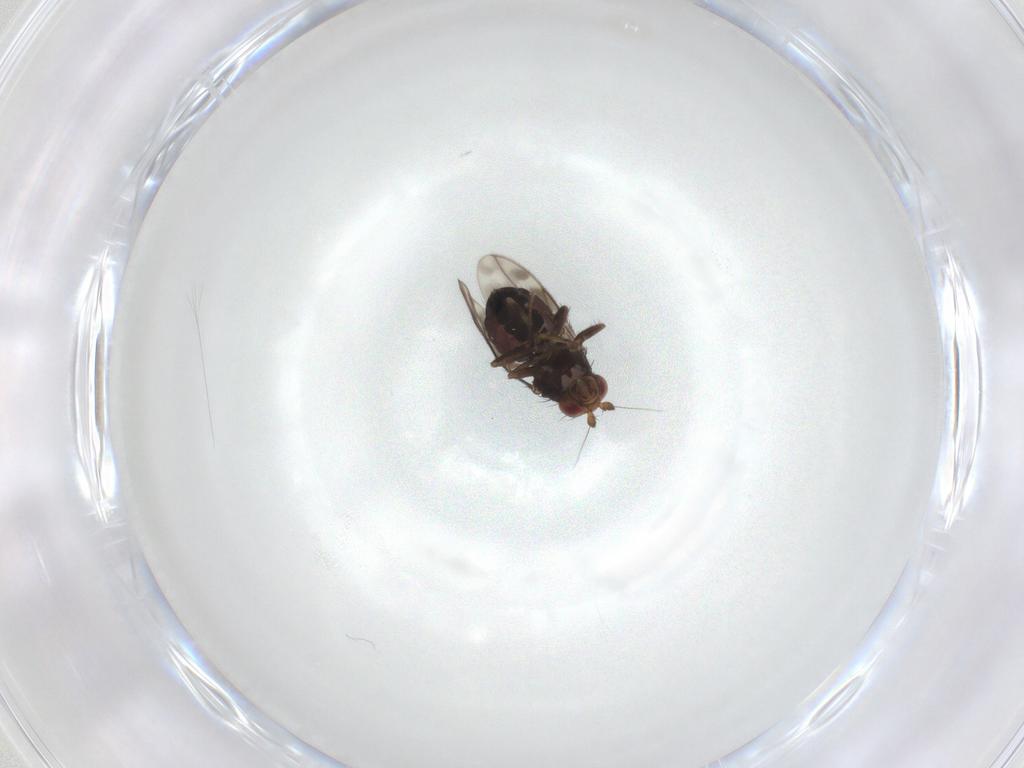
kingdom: Animalia
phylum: Arthropoda
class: Insecta
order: Diptera
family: Sphaeroceridae
